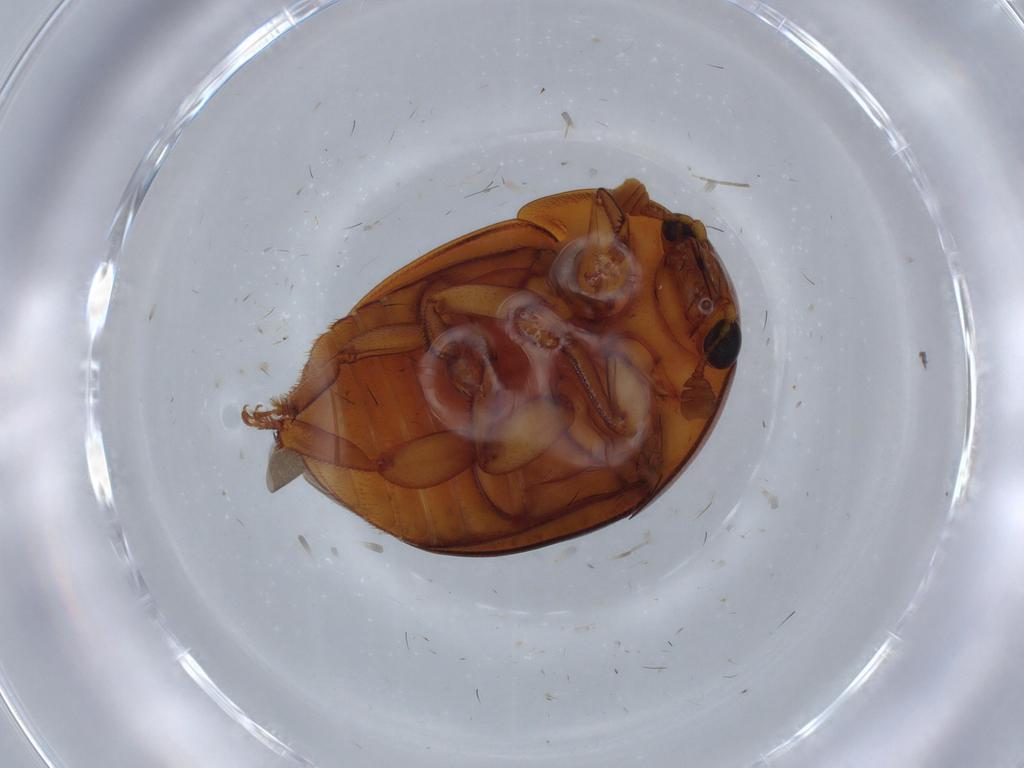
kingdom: Animalia
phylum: Arthropoda
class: Insecta
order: Coleoptera
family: Nitidulidae
